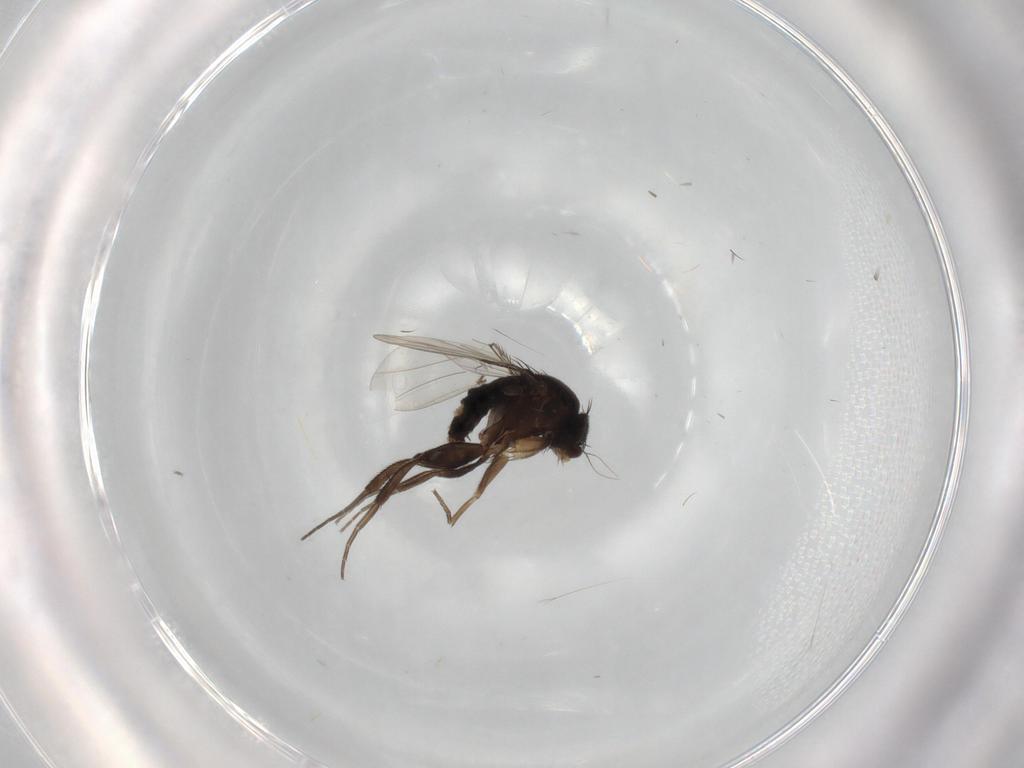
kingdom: Animalia
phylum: Arthropoda
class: Insecta
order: Diptera
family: Phoridae
